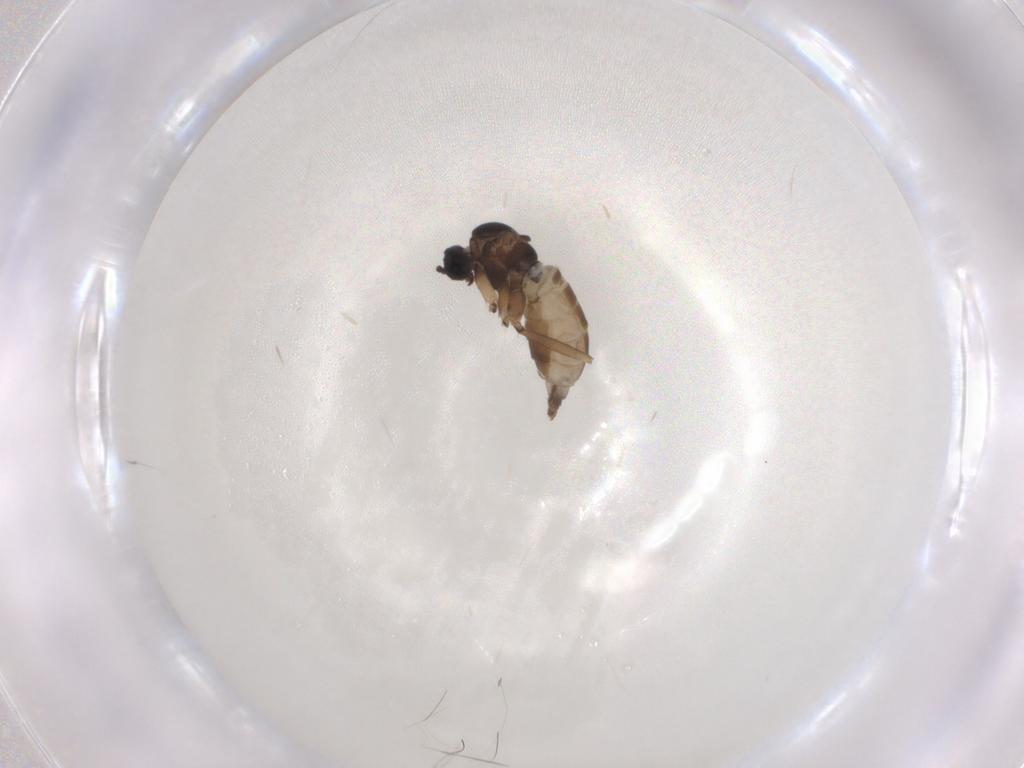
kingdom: Animalia
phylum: Arthropoda
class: Insecta
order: Diptera
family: Sciaridae
